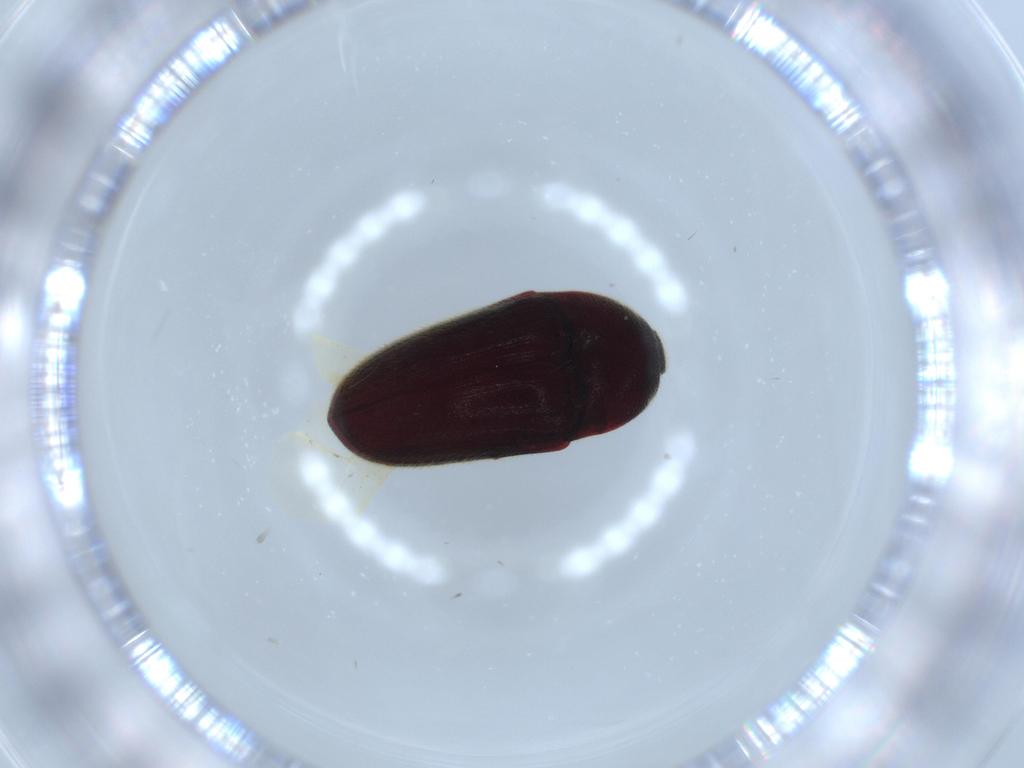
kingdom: Animalia
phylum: Arthropoda
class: Insecta
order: Coleoptera
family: Throscidae
